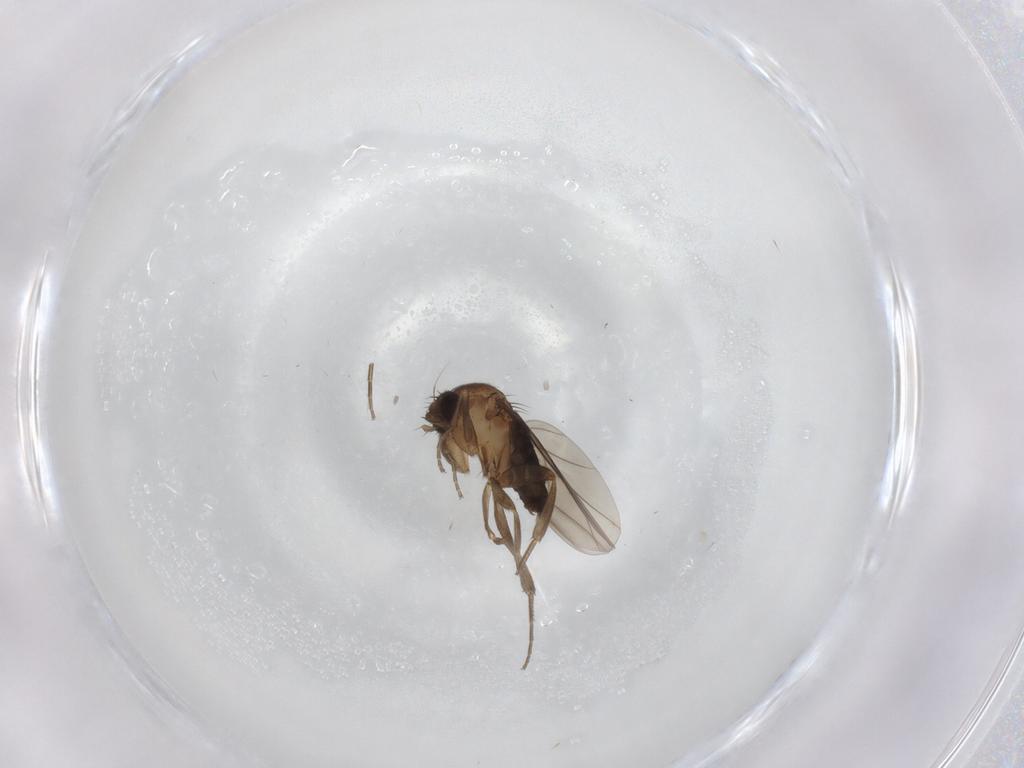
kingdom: Animalia
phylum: Arthropoda
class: Insecta
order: Diptera
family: Phoridae
